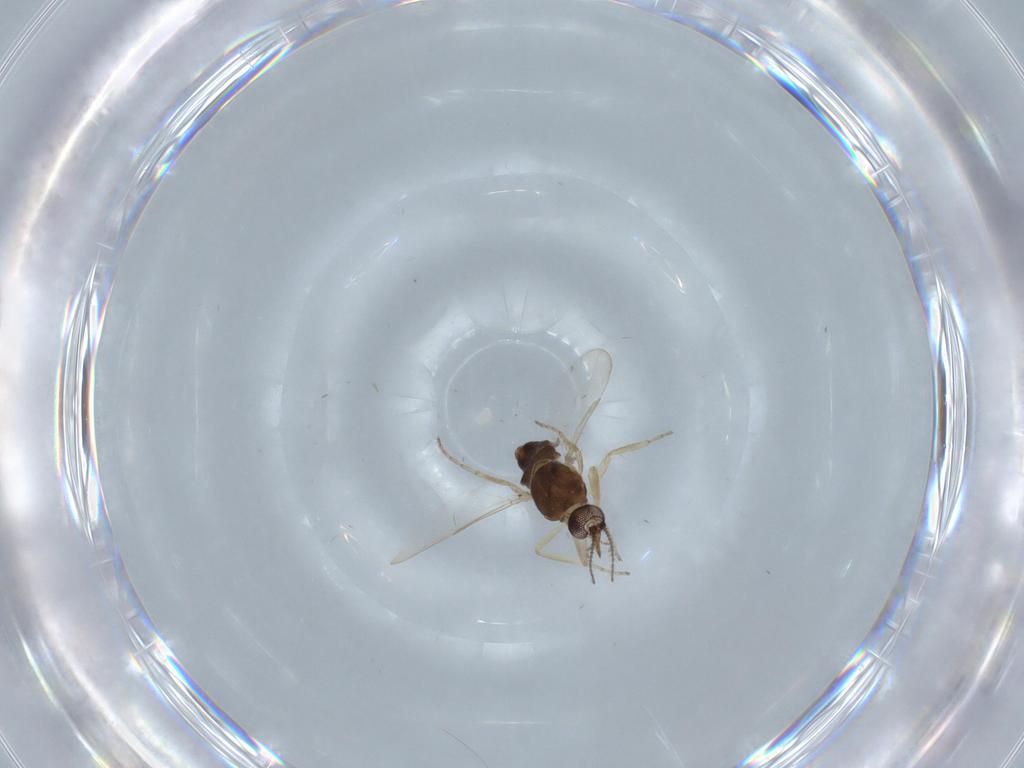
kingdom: Animalia
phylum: Arthropoda
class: Insecta
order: Diptera
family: Ceratopogonidae
